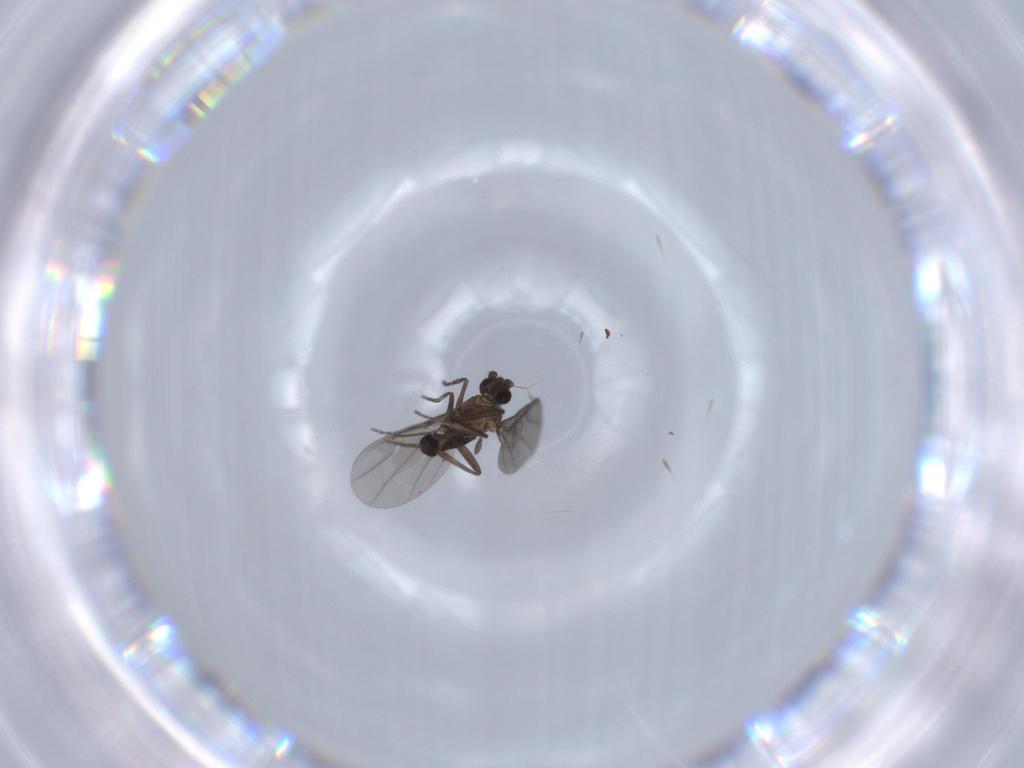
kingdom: Animalia
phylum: Arthropoda
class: Insecta
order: Diptera
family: Phoridae
